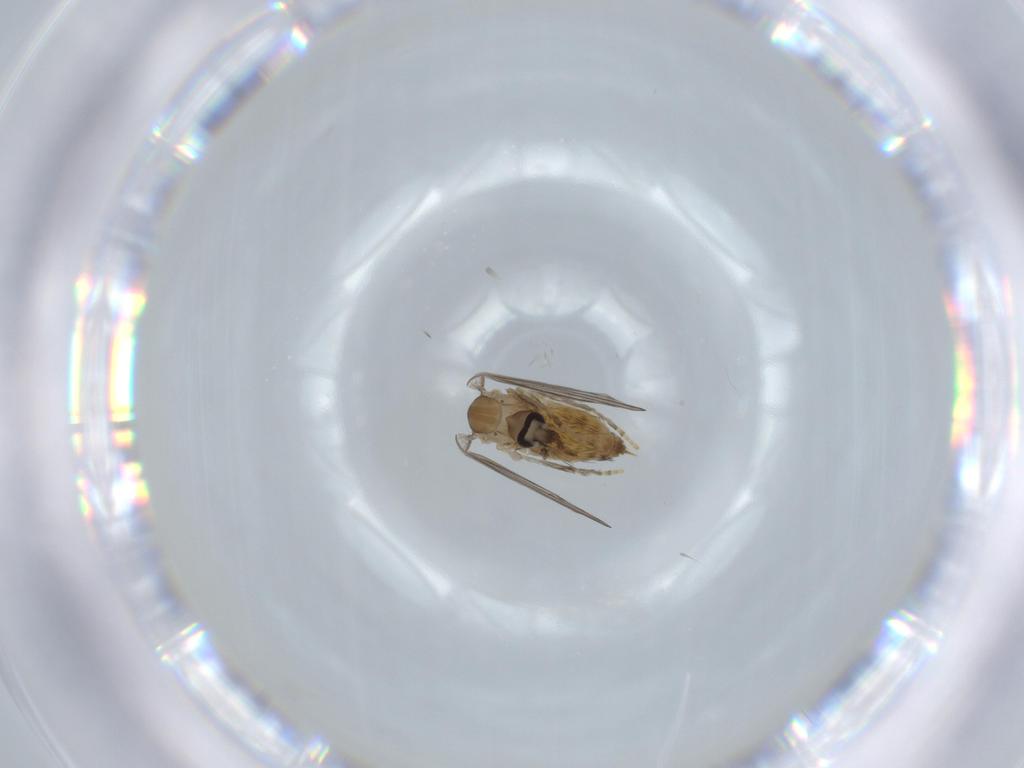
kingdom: Animalia
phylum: Arthropoda
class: Insecta
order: Diptera
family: Psychodidae
